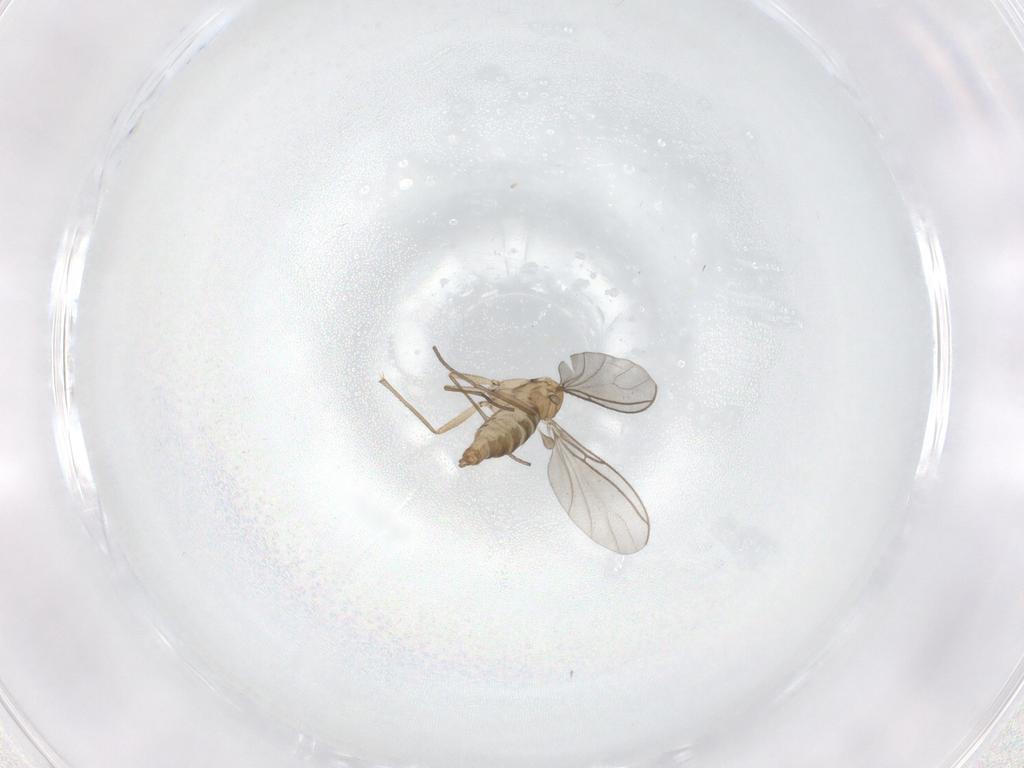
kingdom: Animalia
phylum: Arthropoda
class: Insecta
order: Diptera
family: Sciaridae
